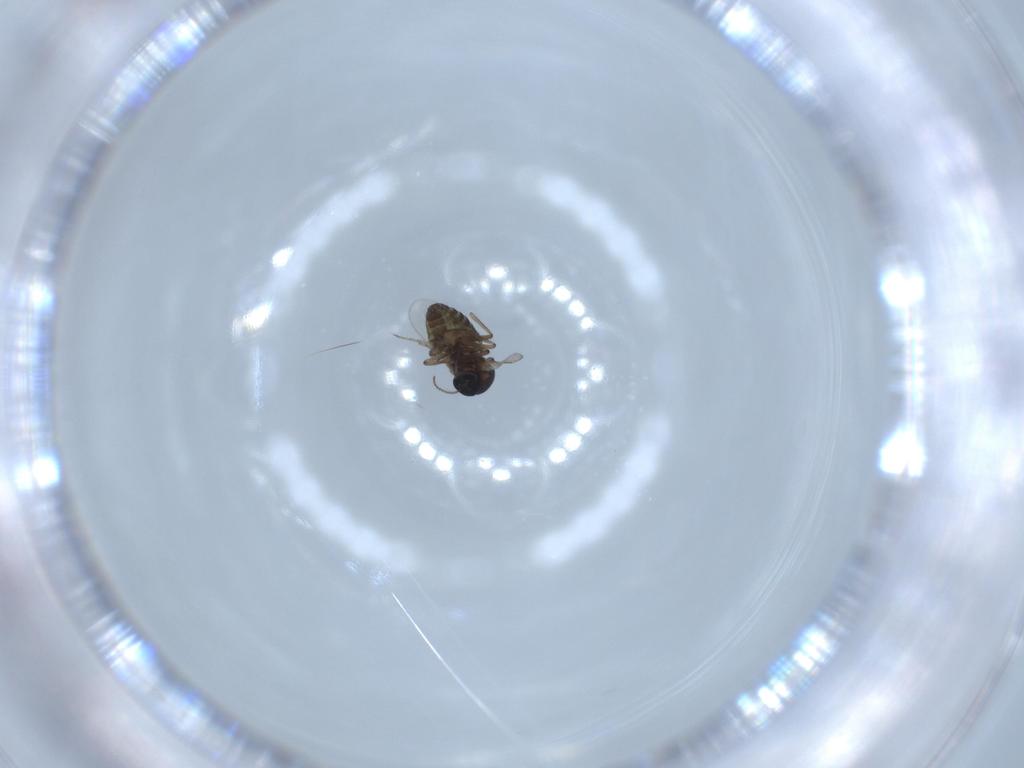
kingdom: Animalia
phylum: Arthropoda
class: Insecta
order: Diptera
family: Ceratopogonidae
